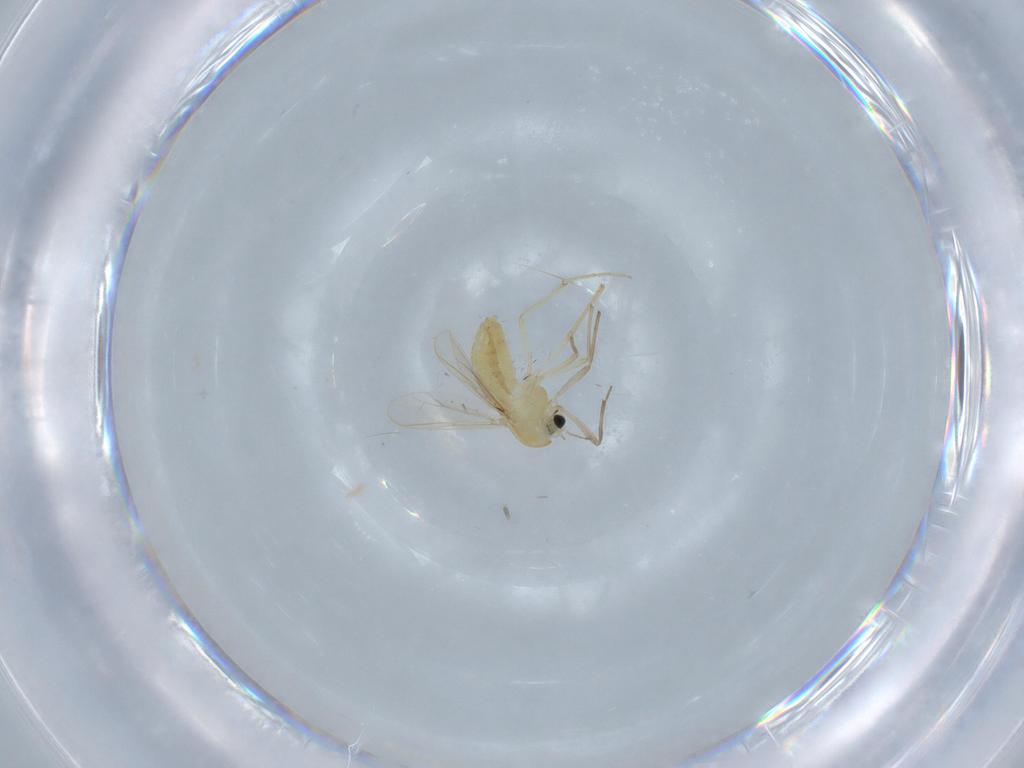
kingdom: Animalia
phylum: Arthropoda
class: Insecta
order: Diptera
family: Chironomidae
